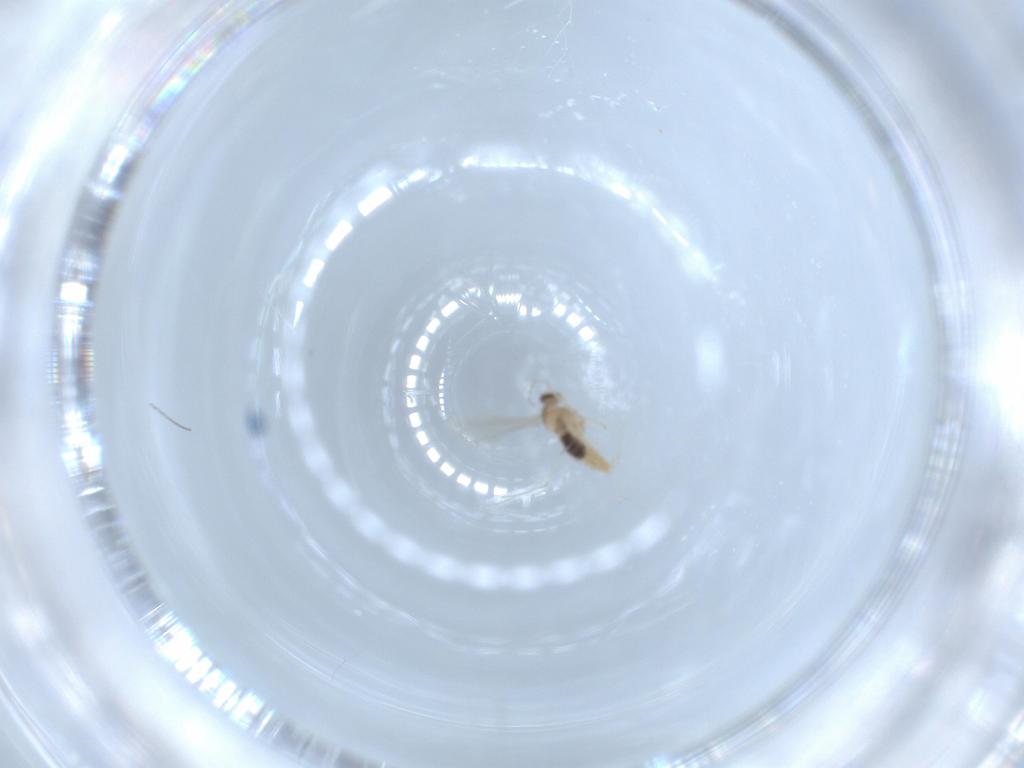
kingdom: Animalia
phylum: Arthropoda
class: Insecta
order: Diptera
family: Cecidomyiidae
